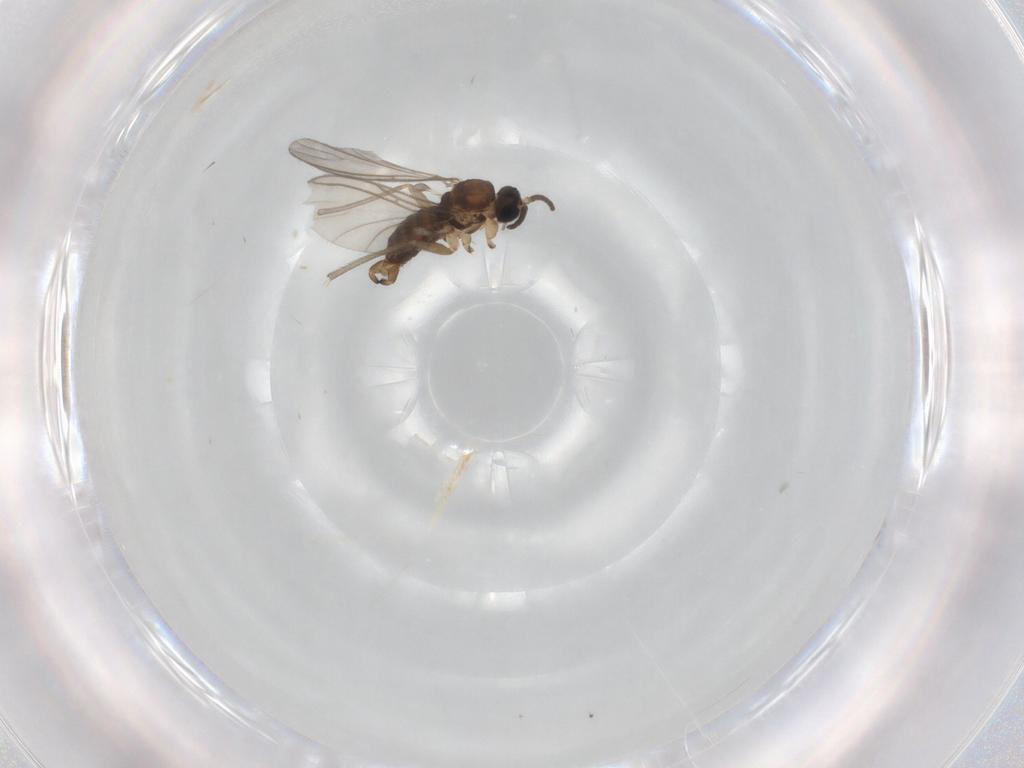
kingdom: Animalia
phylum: Arthropoda
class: Insecta
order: Diptera
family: Sciaridae
